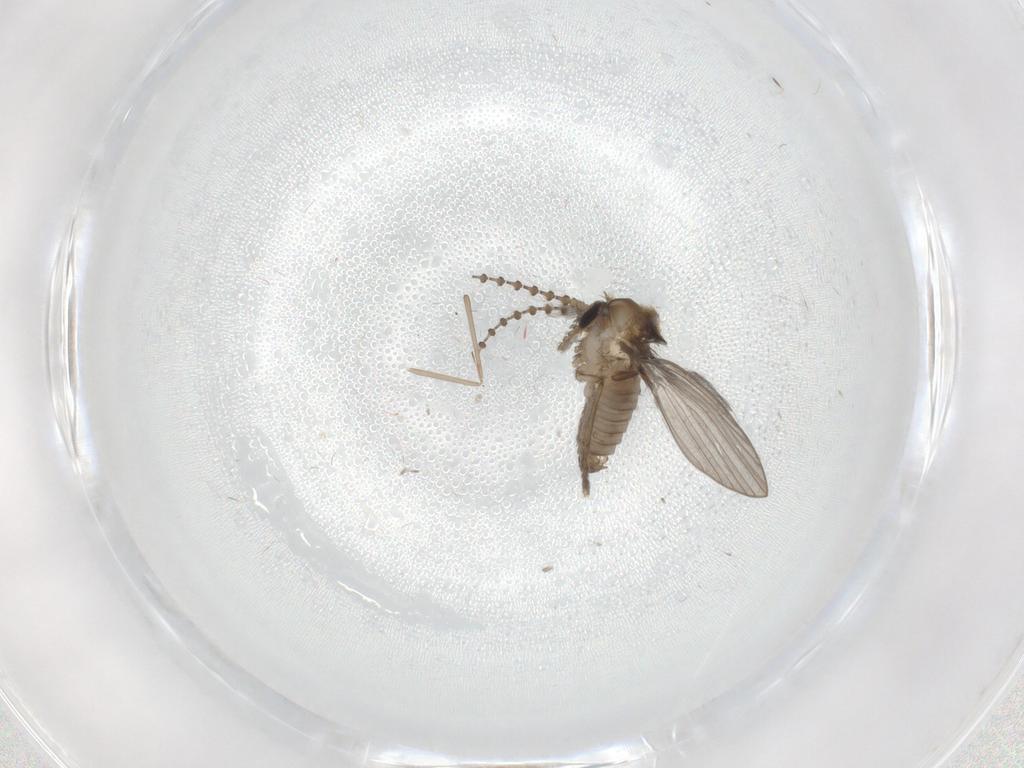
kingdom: Animalia
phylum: Arthropoda
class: Insecta
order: Diptera
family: Psychodidae
